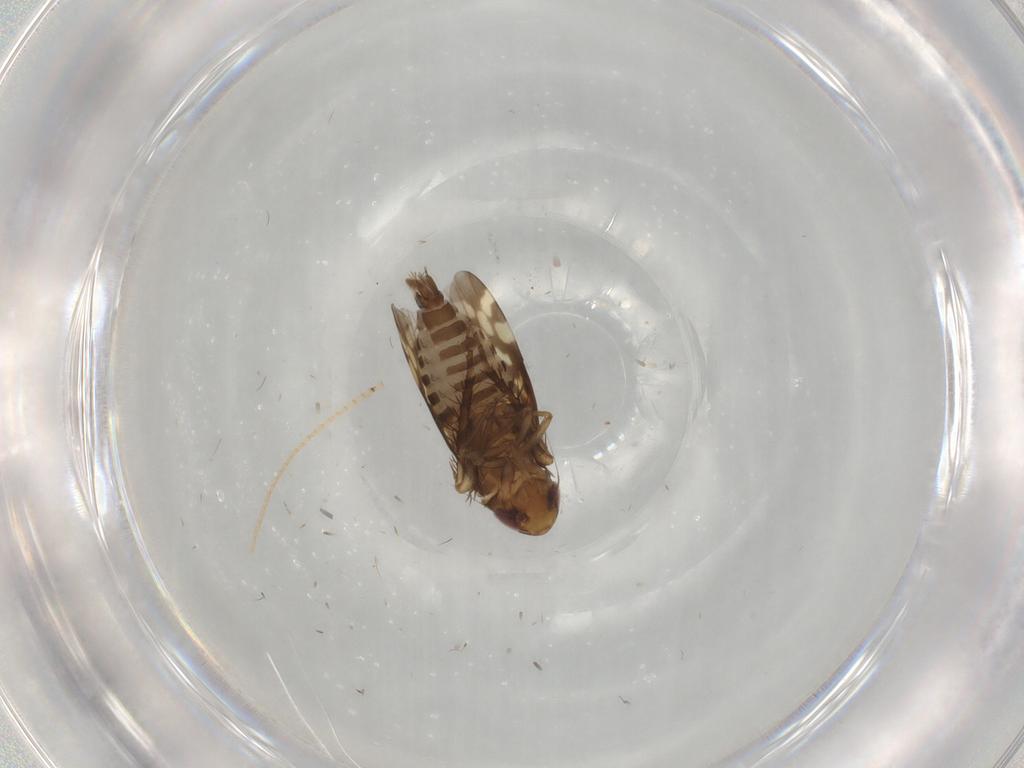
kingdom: Animalia
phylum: Arthropoda
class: Insecta
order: Hemiptera
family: Cicadellidae
